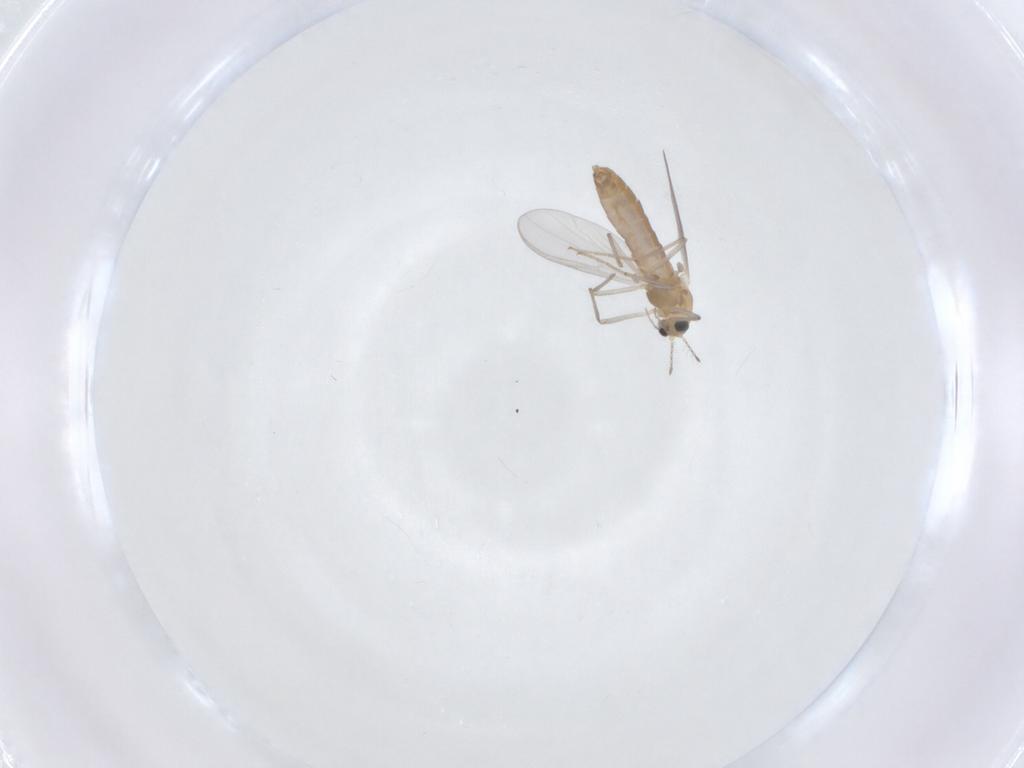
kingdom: Animalia
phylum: Arthropoda
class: Insecta
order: Diptera
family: Chironomidae
